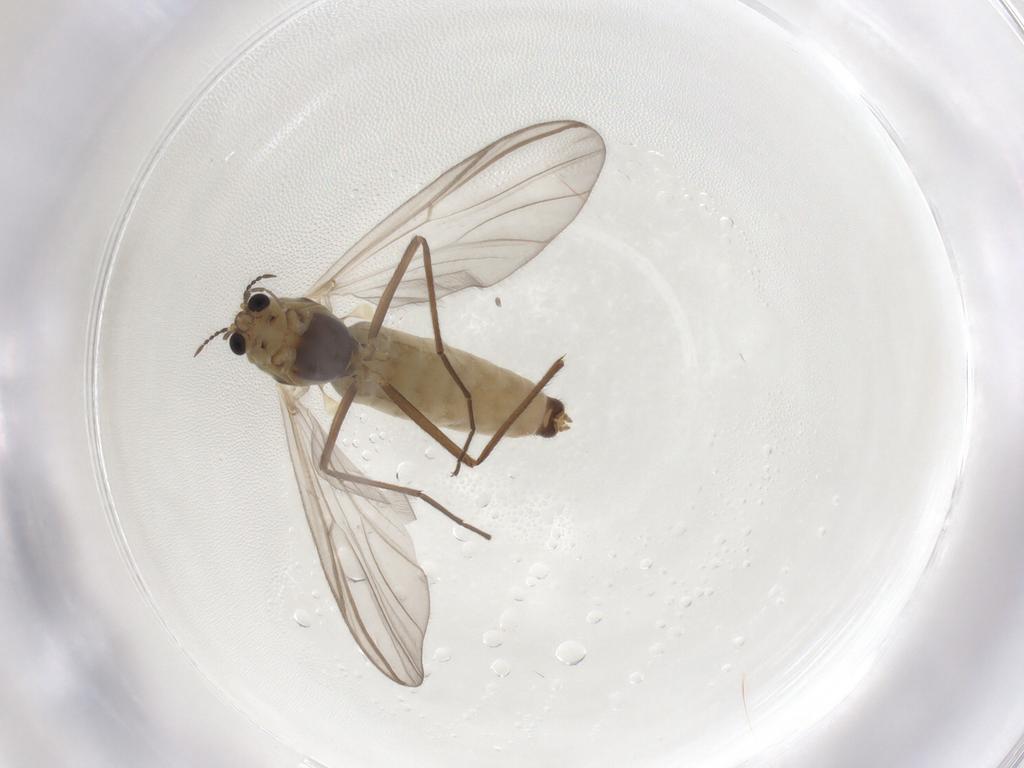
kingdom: Animalia
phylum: Arthropoda
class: Insecta
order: Diptera
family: Chironomidae
